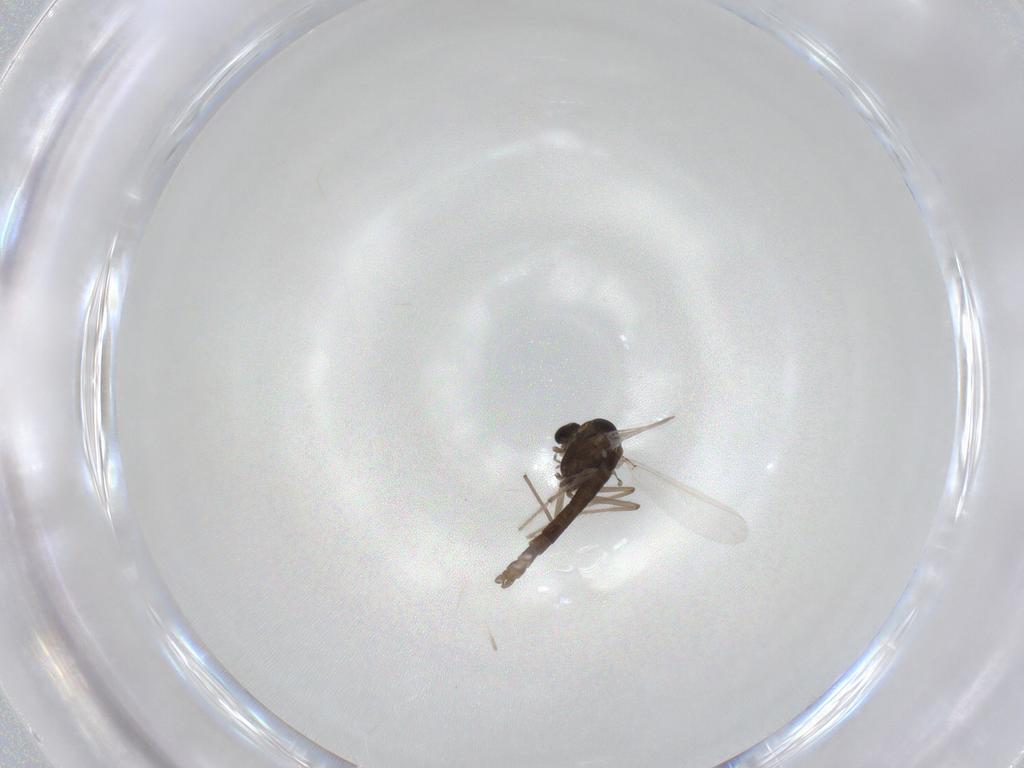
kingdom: Animalia
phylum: Arthropoda
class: Insecta
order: Diptera
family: Chironomidae
